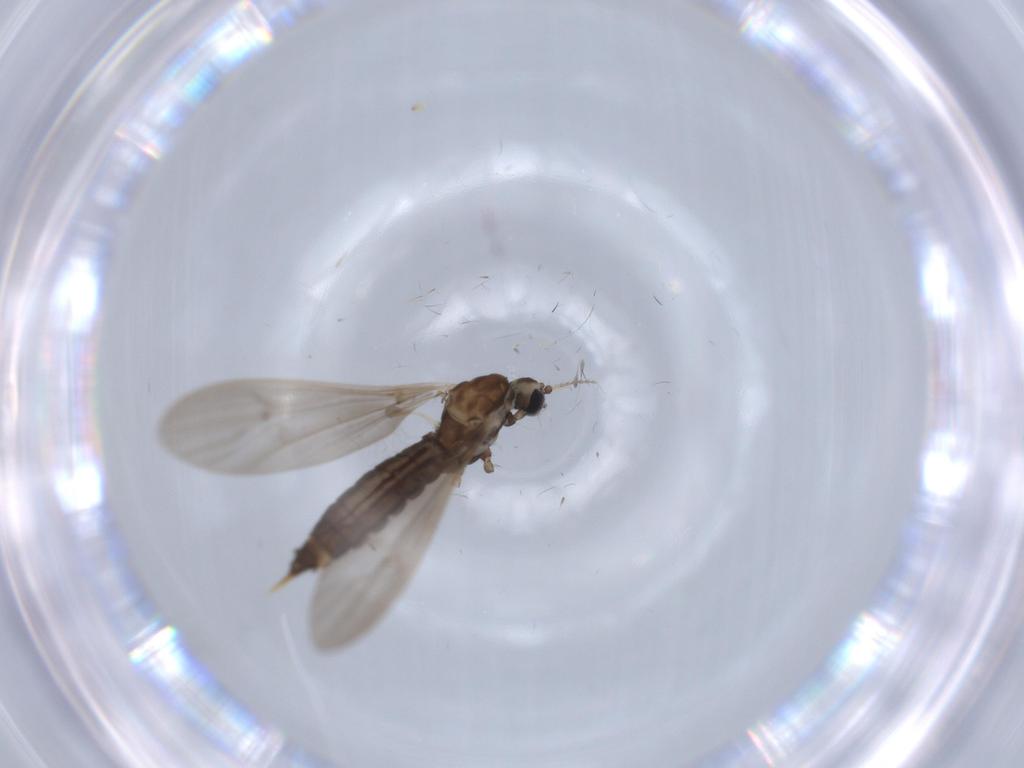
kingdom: Animalia
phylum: Arthropoda
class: Insecta
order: Diptera
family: Limoniidae
